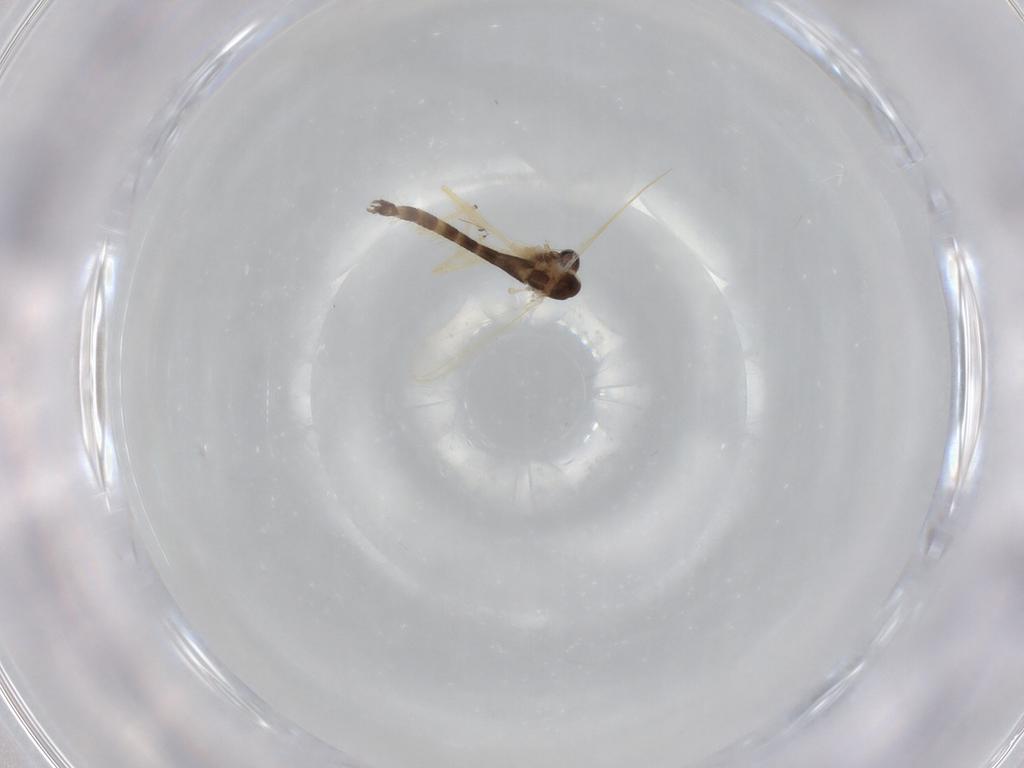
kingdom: Animalia
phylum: Arthropoda
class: Insecta
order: Diptera
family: Chironomidae
